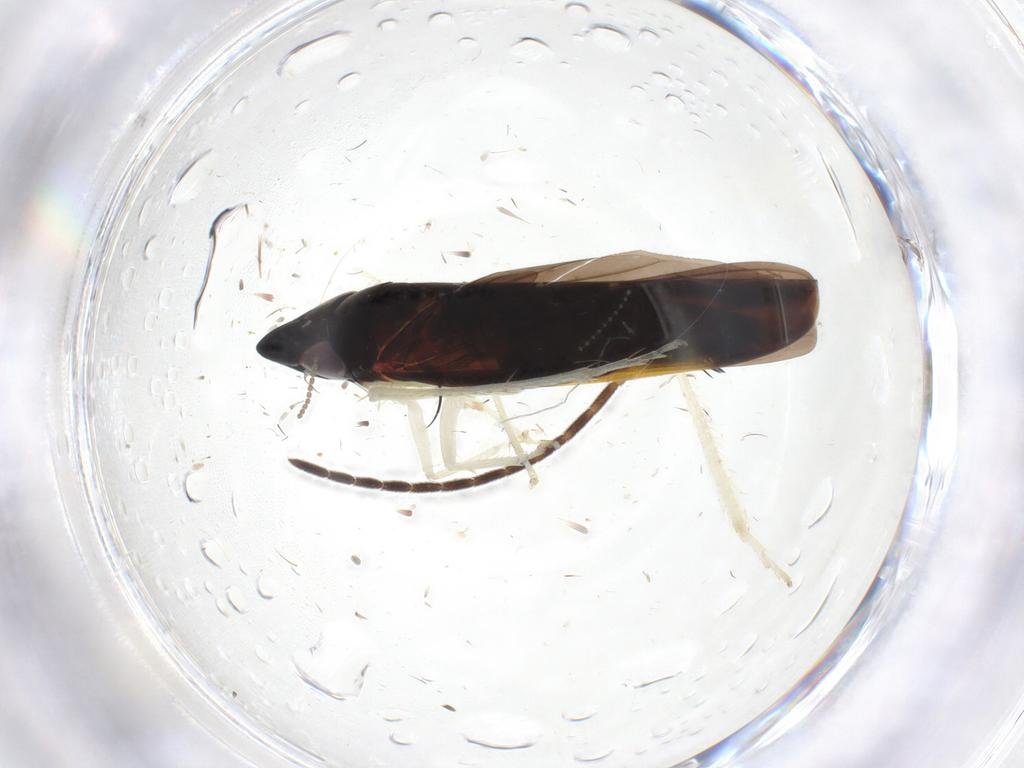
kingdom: Animalia
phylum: Arthropoda
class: Insecta
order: Hemiptera
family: Cicadellidae
